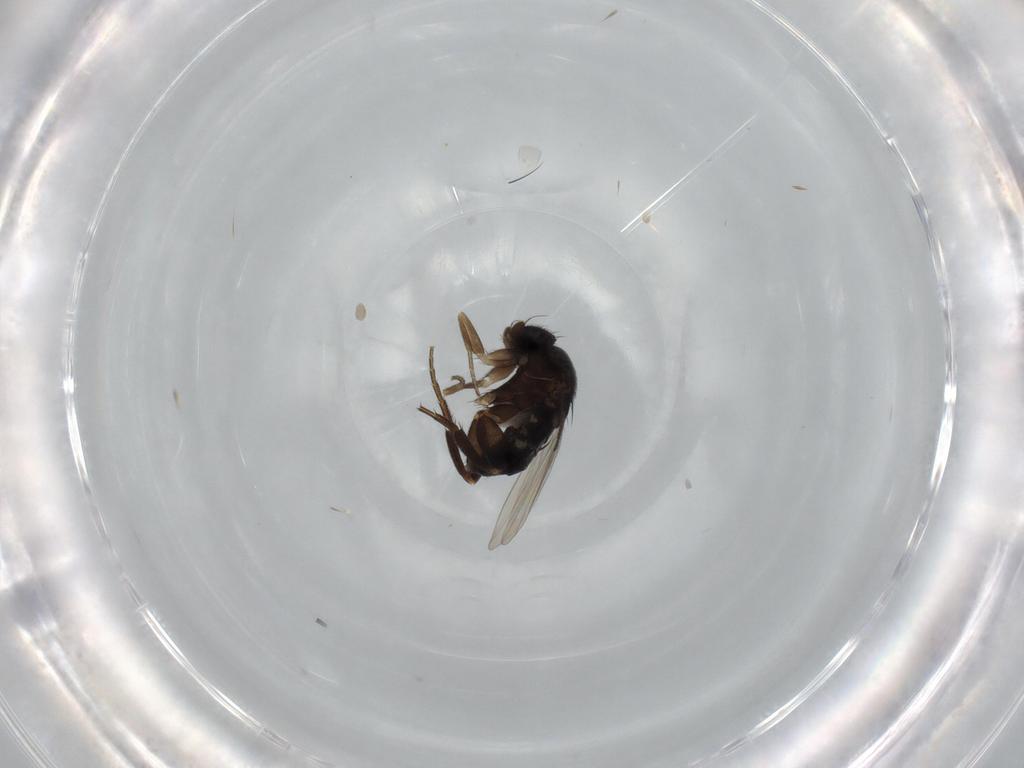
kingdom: Animalia
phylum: Arthropoda
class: Insecta
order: Diptera
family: Phoridae
